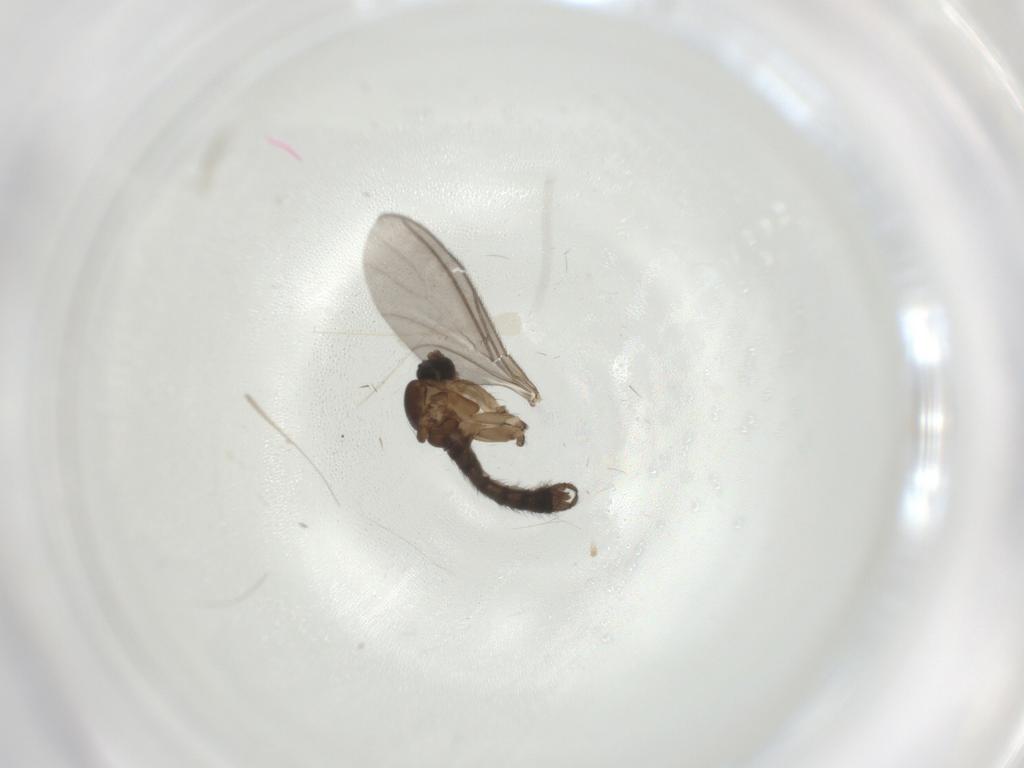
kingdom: Animalia
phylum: Arthropoda
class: Insecta
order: Diptera
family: Sciaridae
